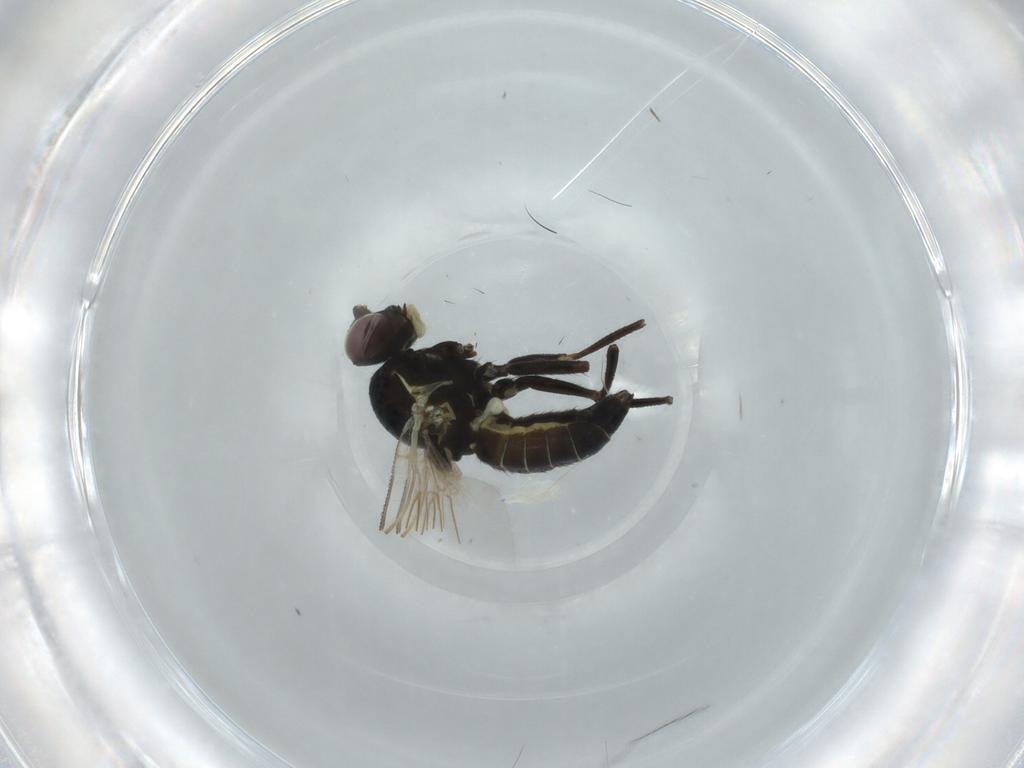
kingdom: Animalia
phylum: Arthropoda
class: Insecta
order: Diptera
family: Agromyzidae
